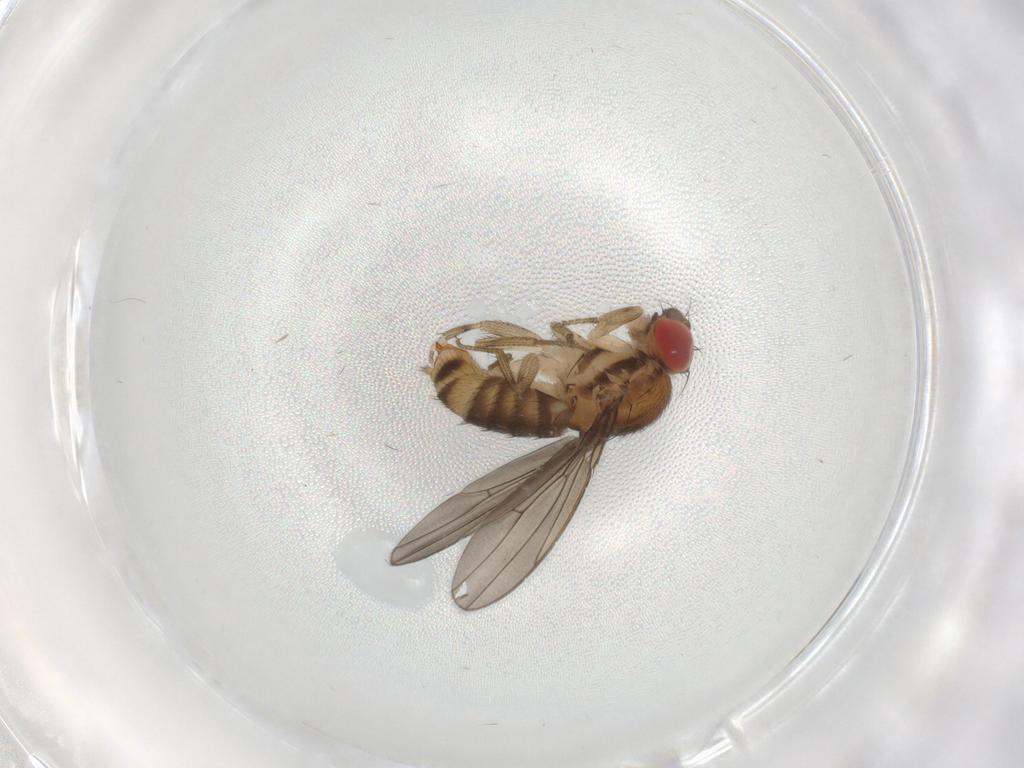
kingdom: Animalia
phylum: Arthropoda
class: Insecta
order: Diptera
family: Drosophilidae
